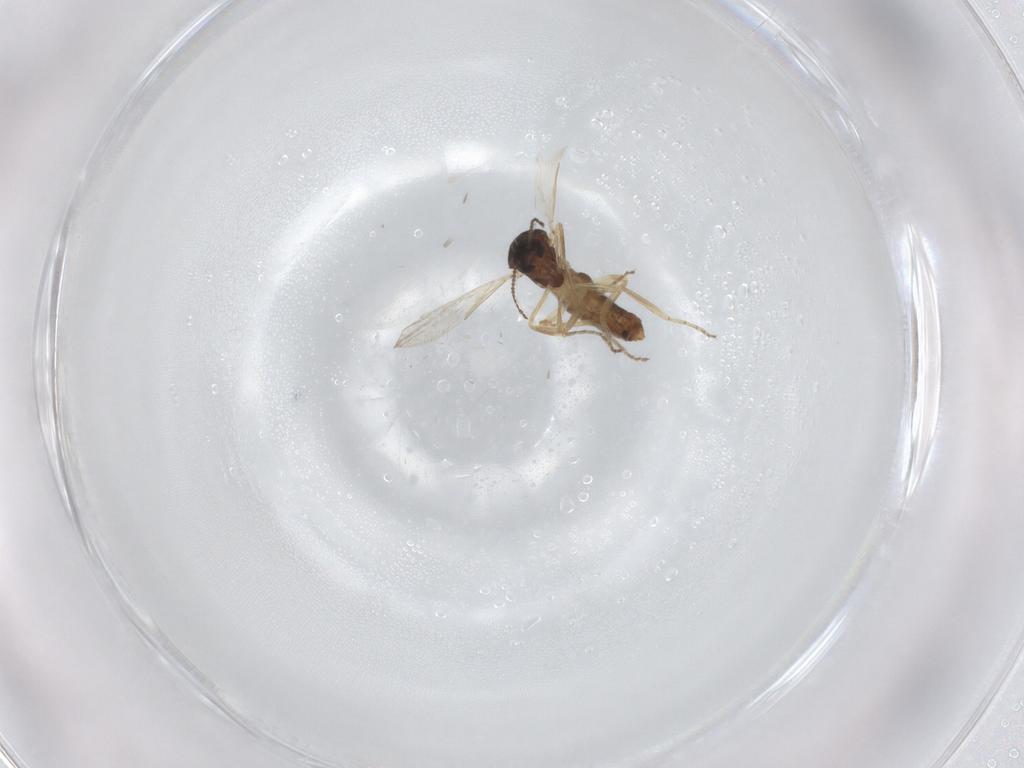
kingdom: Animalia
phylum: Arthropoda
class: Insecta
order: Diptera
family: Ceratopogonidae
